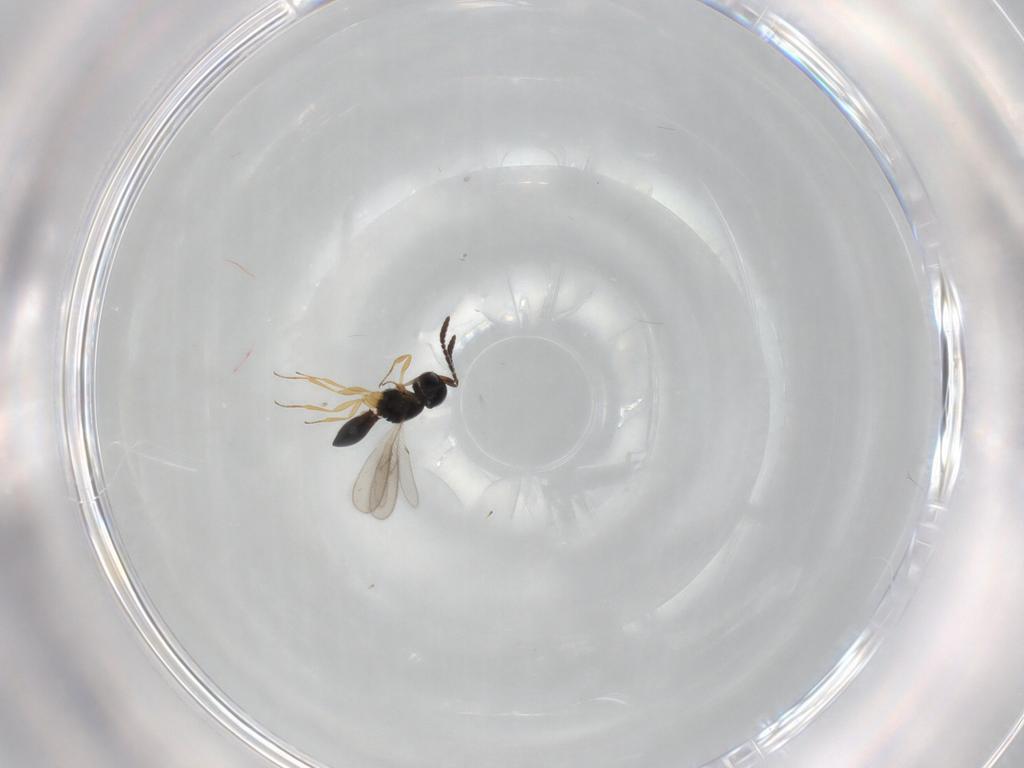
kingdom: Animalia
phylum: Arthropoda
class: Insecta
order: Hymenoptera
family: Scelionidae
